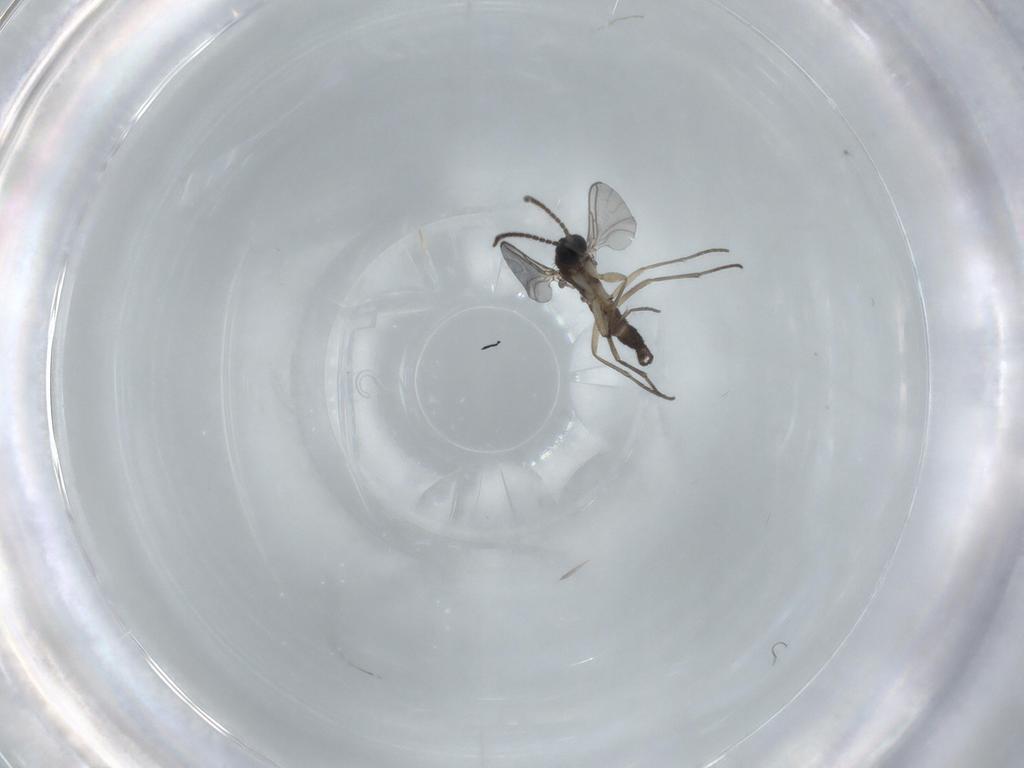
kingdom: Animalia
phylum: Arthropoda
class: Insecta
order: Diptera
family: Sciaridae
